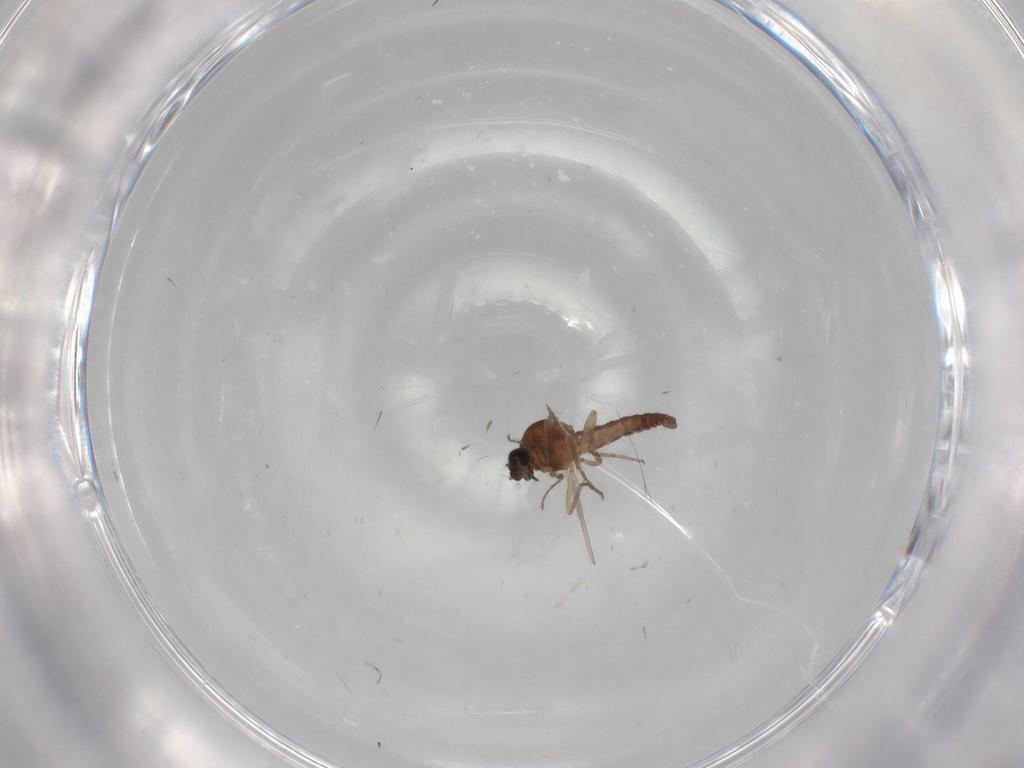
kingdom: Animalia
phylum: Arthropoda
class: Insecta
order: Diptera
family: Ceratopogonidae
